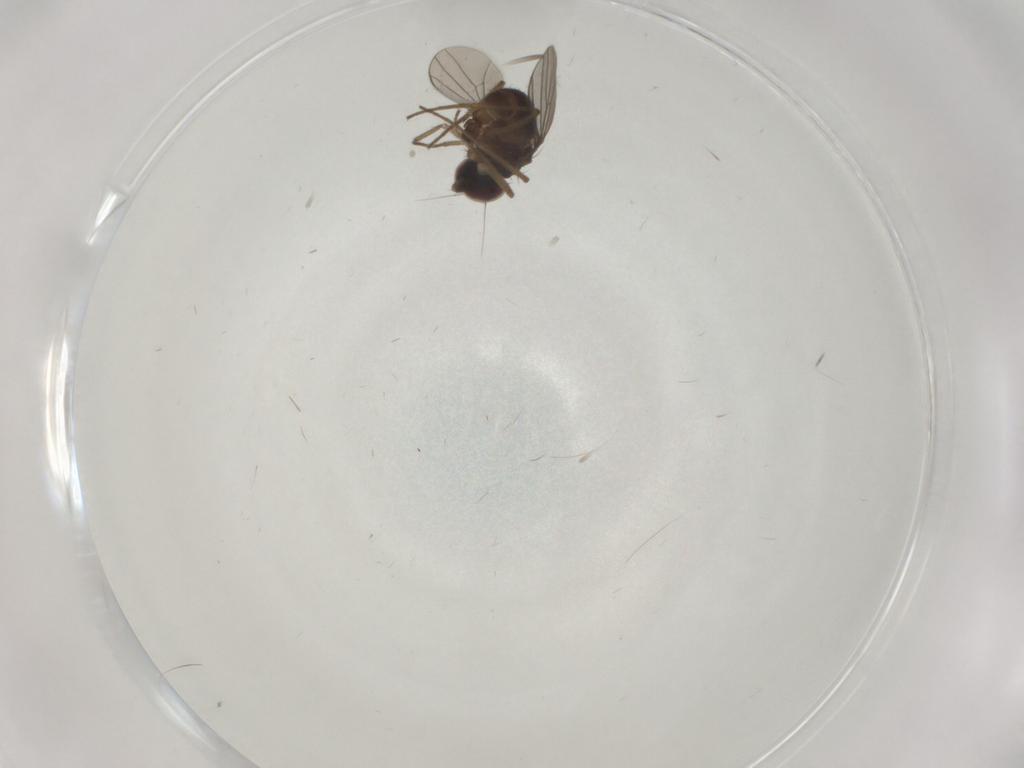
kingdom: Animalia
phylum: Arthropoda
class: Insecta
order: Diptera
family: Dolichopodidae
